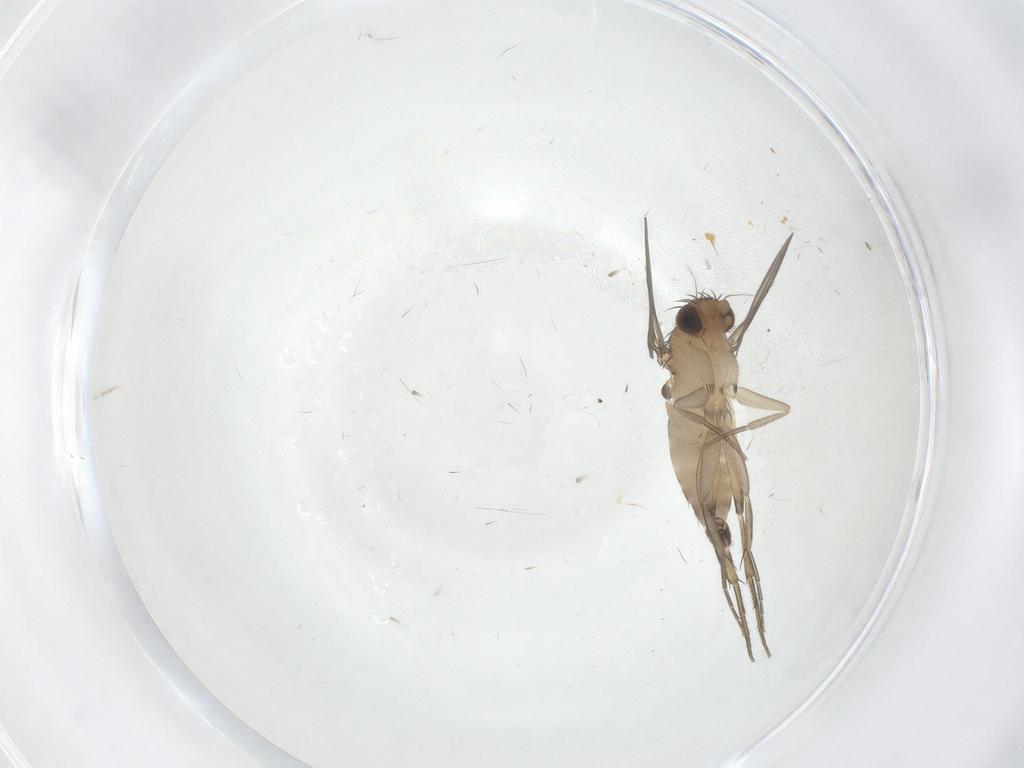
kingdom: Animalia
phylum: Arthropoda
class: Insecta
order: Diptera
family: Phoridae
